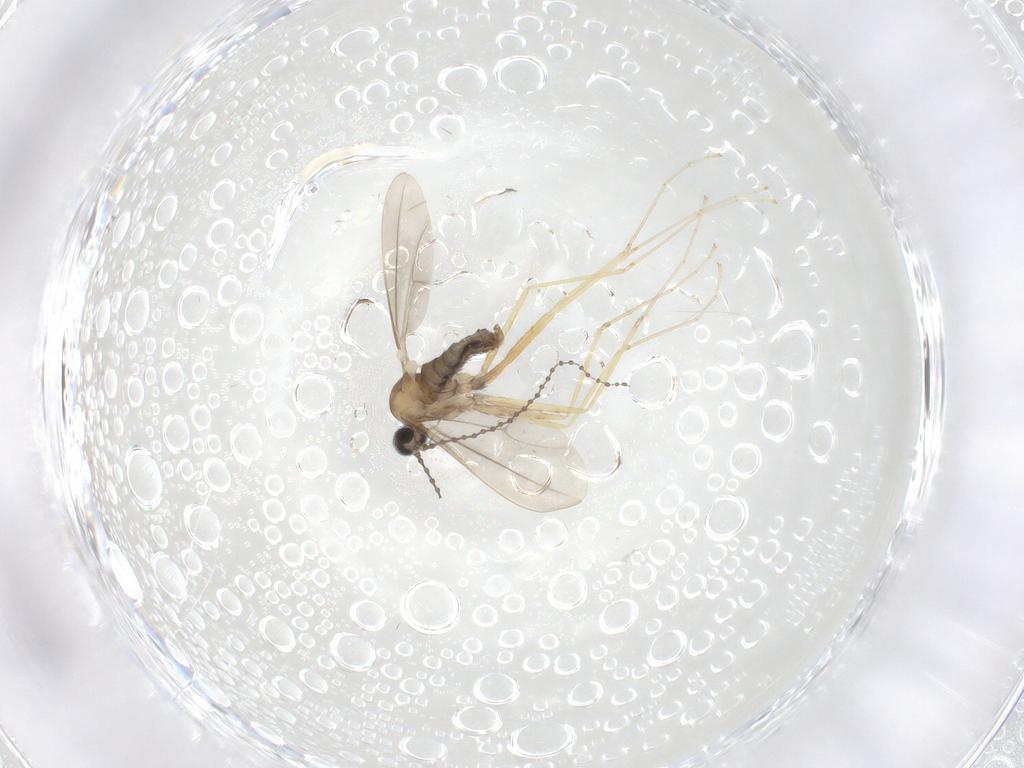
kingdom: Animalia
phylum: Arthropoda
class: Insecta
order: Diptera
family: Cecidomyiidae
